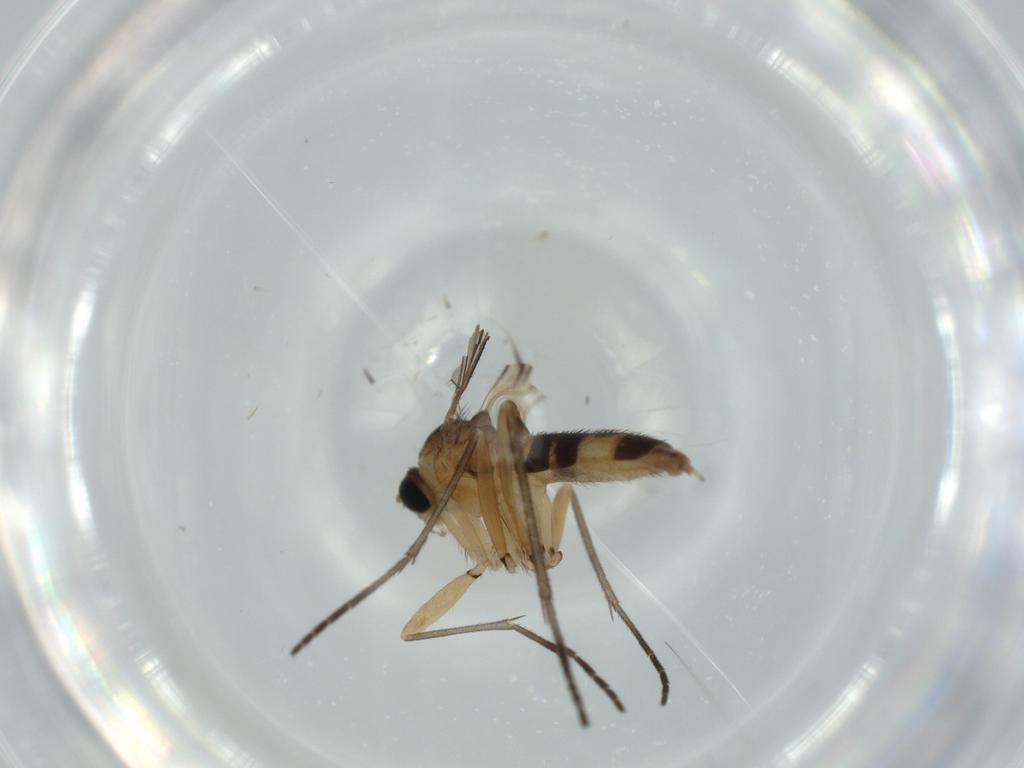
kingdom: Animalia
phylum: Arthropoda
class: Insecta
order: Diptera
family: Sciaridae
